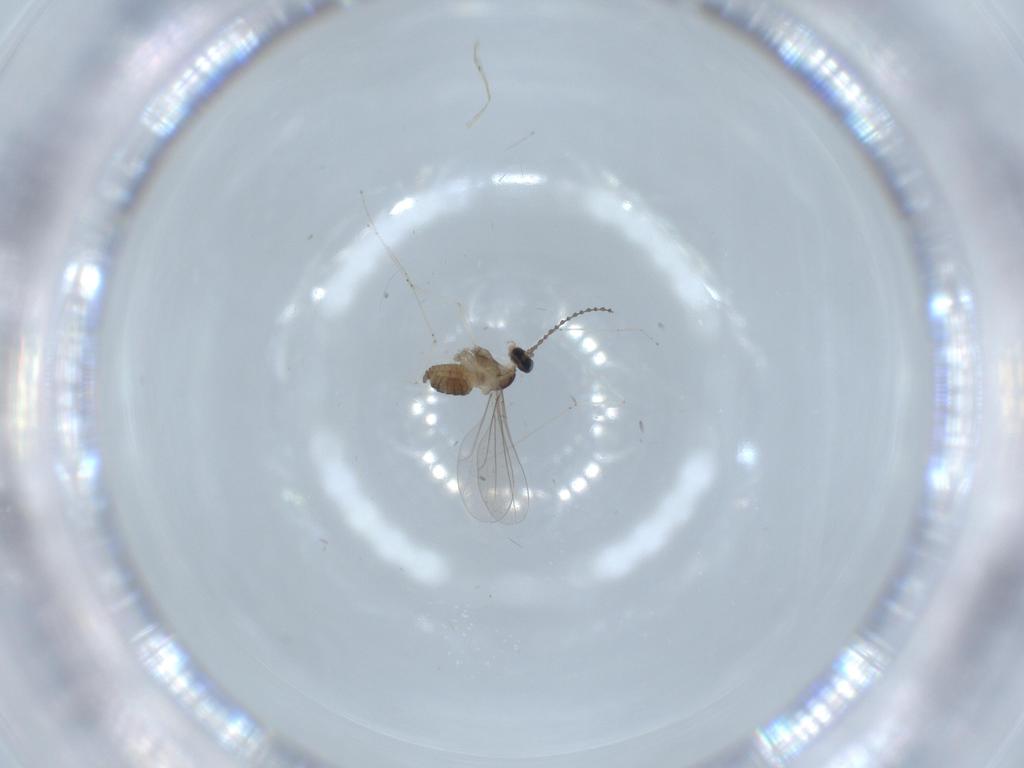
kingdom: Animalia
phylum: Arthropoda
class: Insecta
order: Diptera
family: Cecidomyiidae
